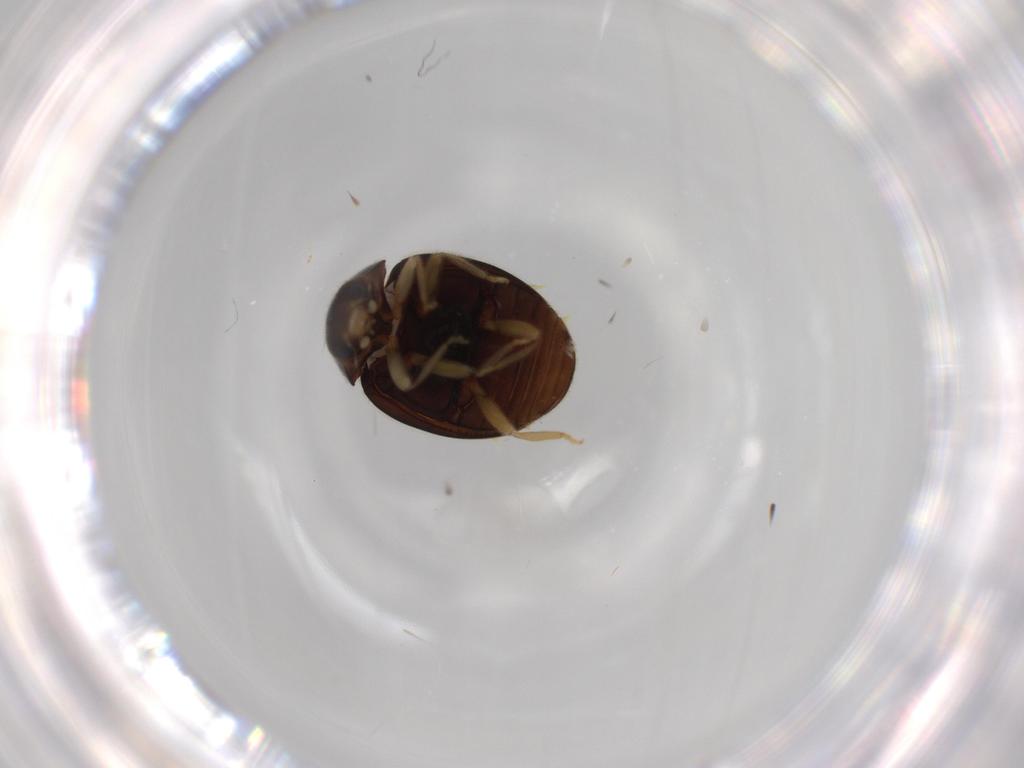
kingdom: Animalia
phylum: Arthropoda
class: Insecta
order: Coleoptera
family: Coccinellidae
